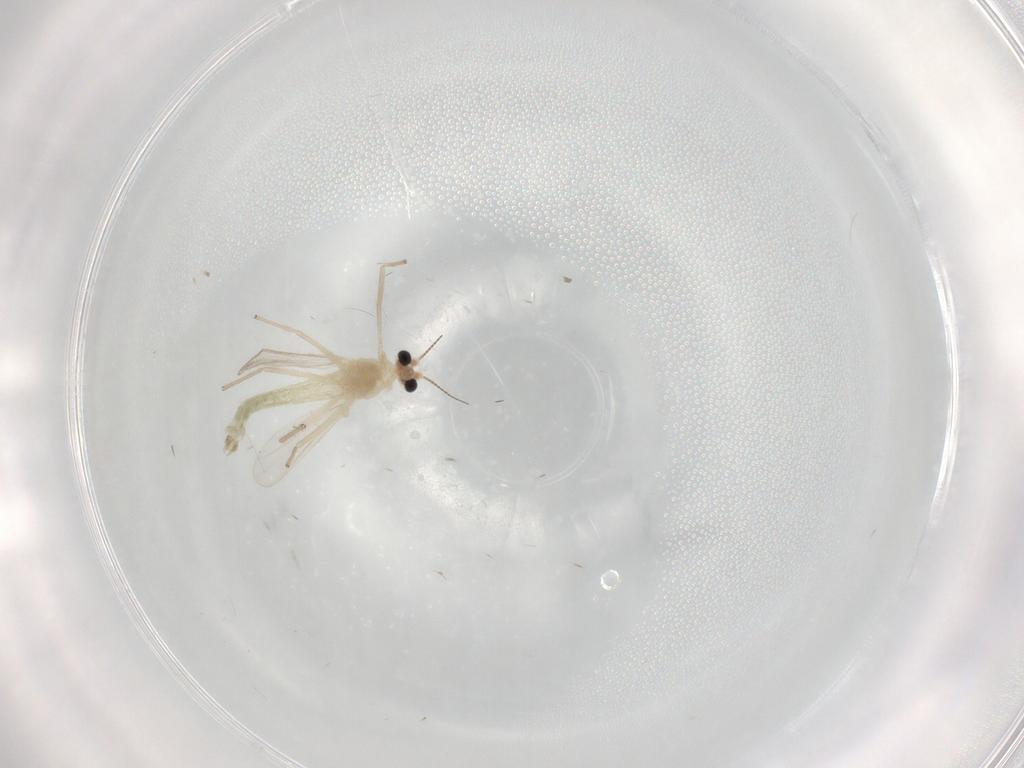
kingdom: Animalia
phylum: Arthropoda
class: Insecta
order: Diptera
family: Chironomidae
